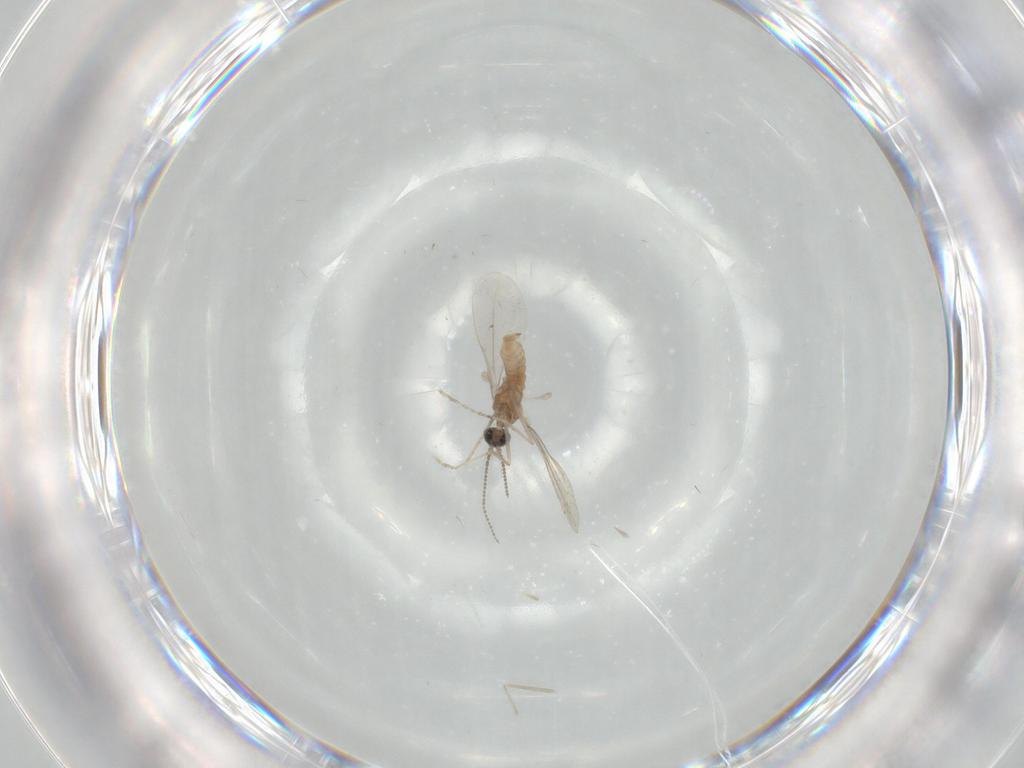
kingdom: Animalia
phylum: Arthropoda
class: Insecta
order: Diptera
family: Cecidomyiidae
